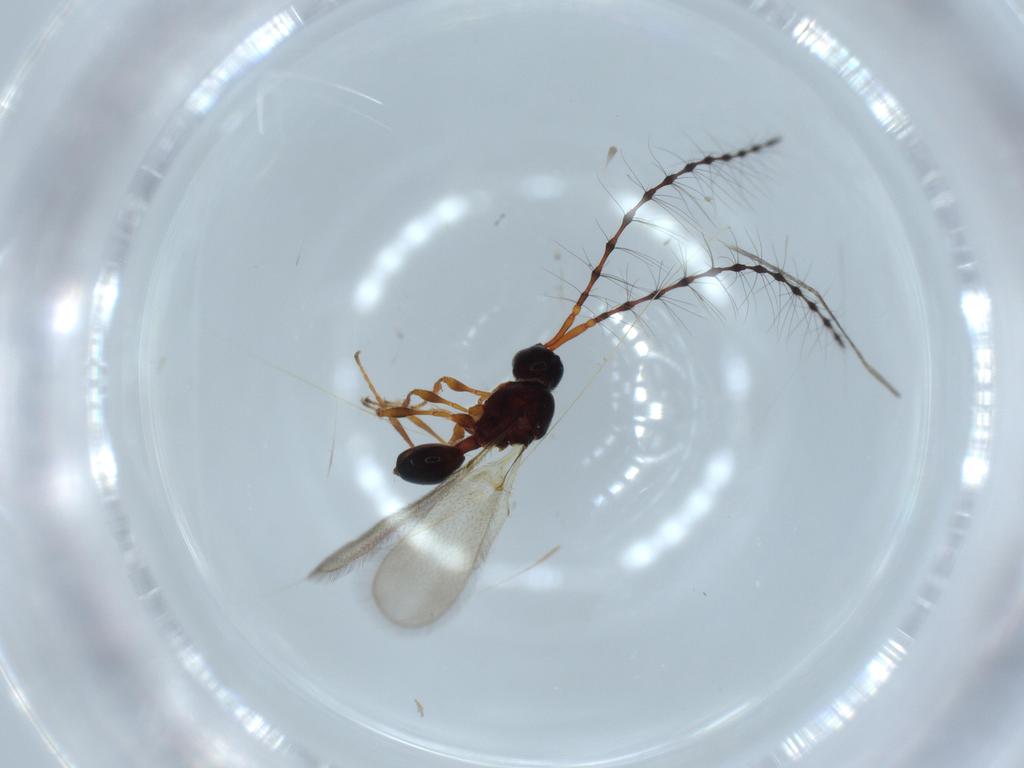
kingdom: Animalia
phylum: Arthropoda
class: Insecta
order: Hymenoptera
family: Diapriidae
